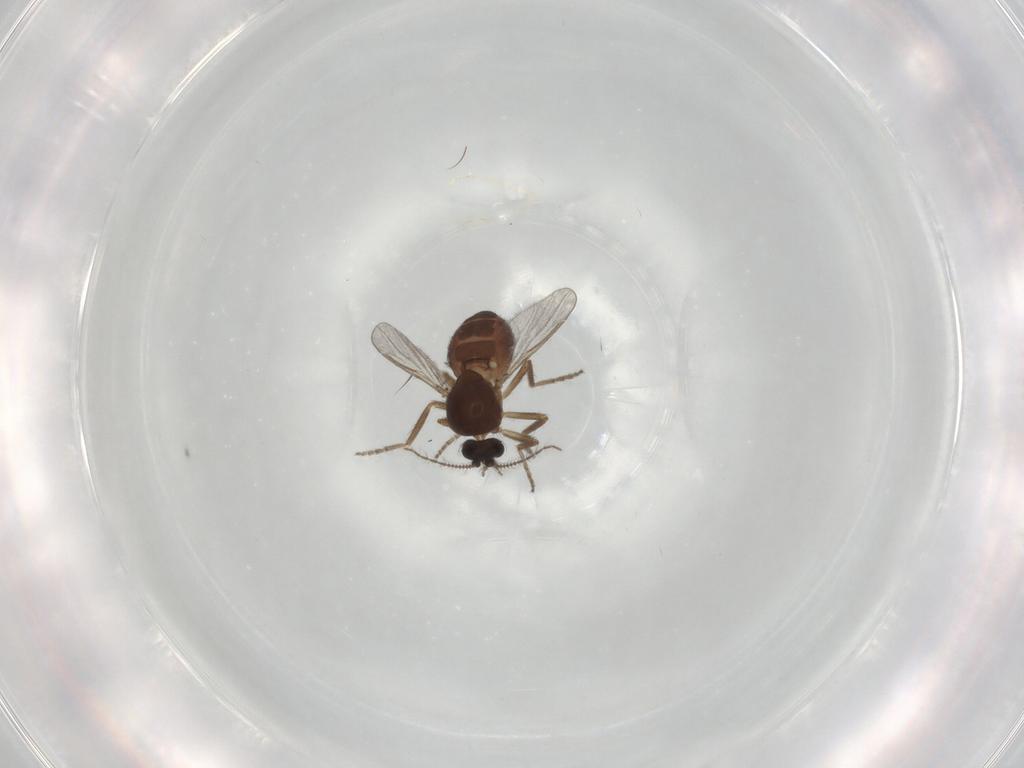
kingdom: Animalia
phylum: Arthropoda
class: Insecta
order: Diptera
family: Ceratopogonidae
